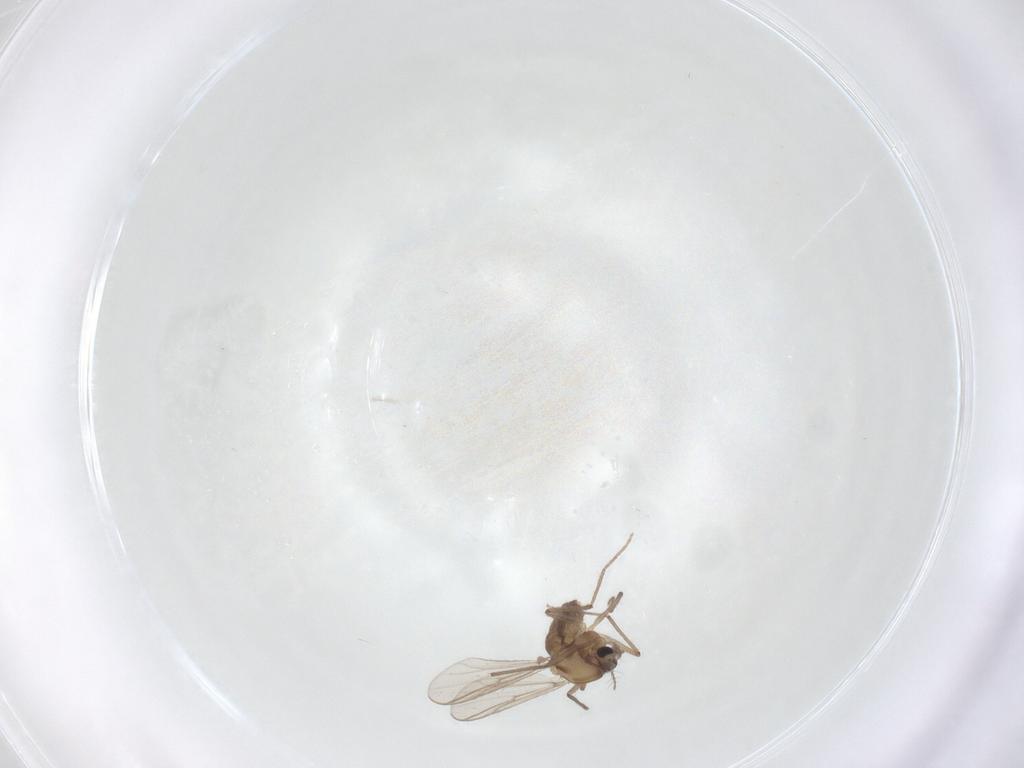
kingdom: Animalia
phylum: Arthropoda
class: Insecta
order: Diptera
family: Chironomidae
